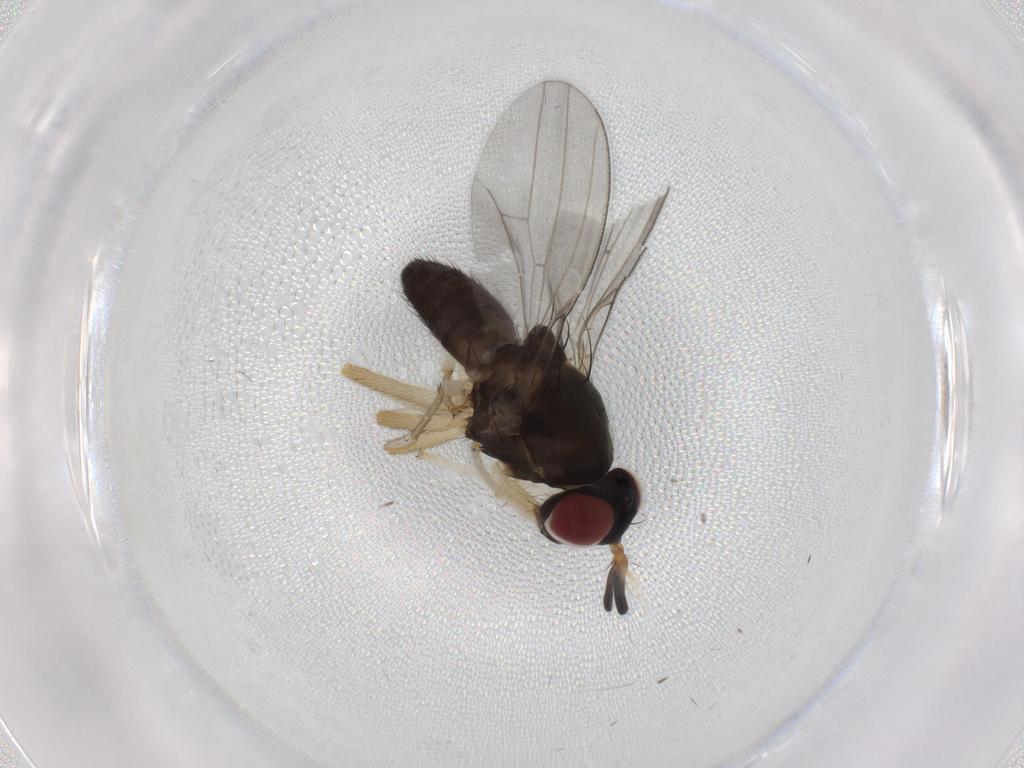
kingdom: Animalia
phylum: Arthropoda
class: Insecta
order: Diptera
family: Lauxaniidae
